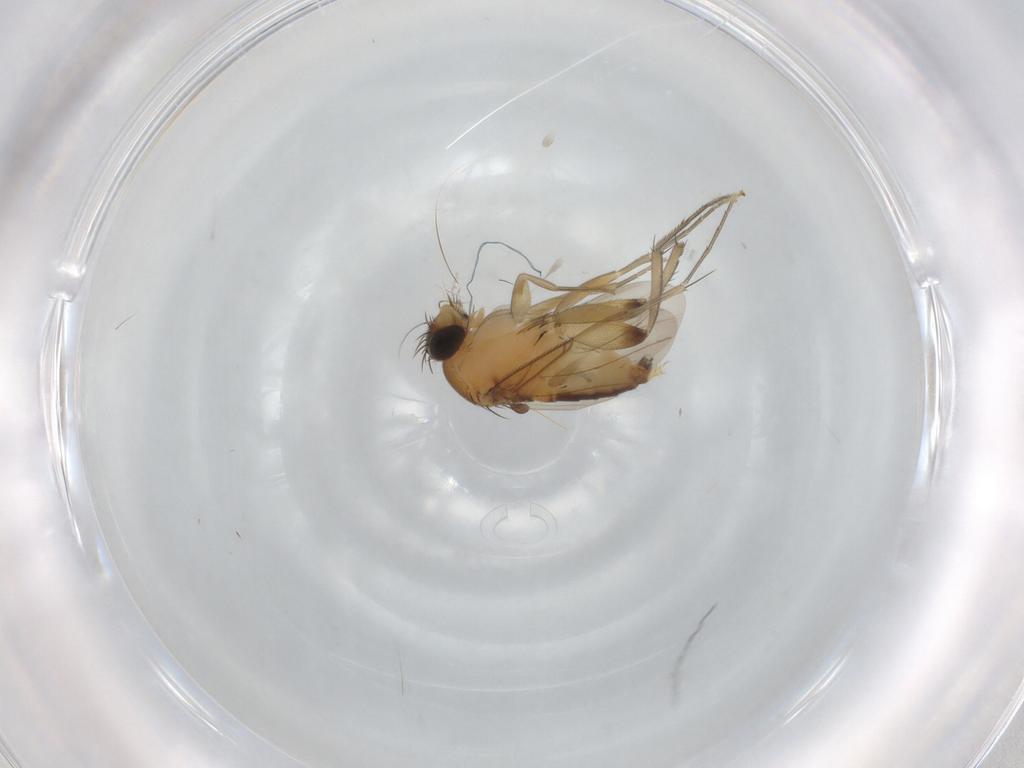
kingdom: Animalia
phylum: Arthropoda
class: Insecta
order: Diptera
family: Phoridae
